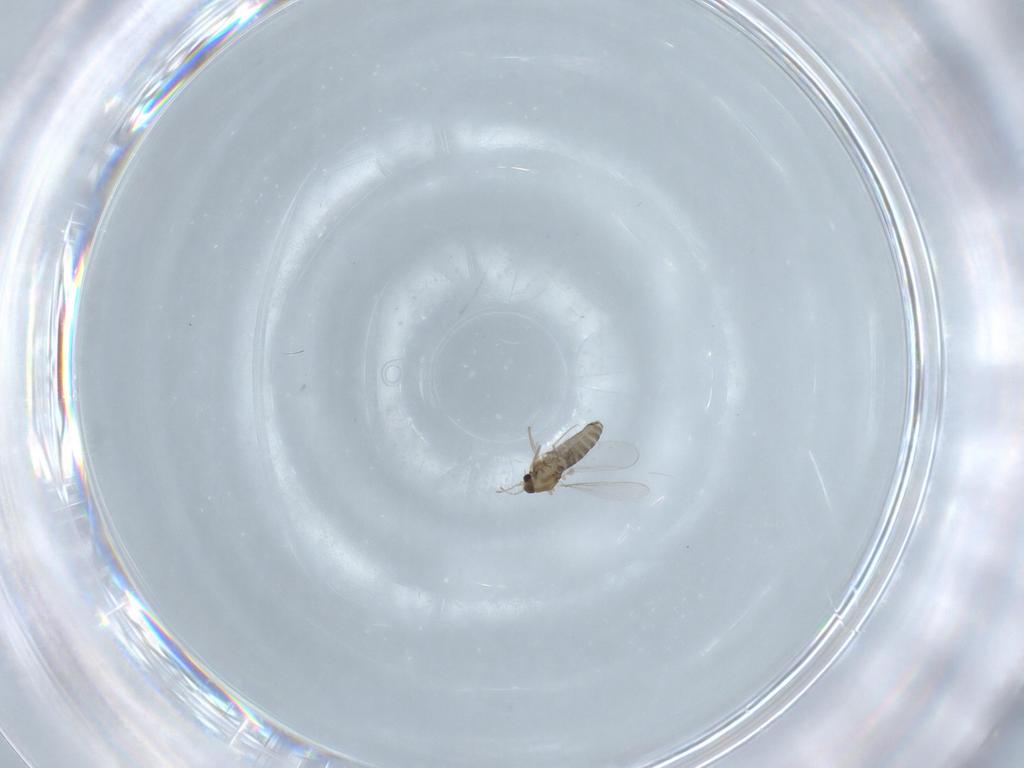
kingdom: Animalia
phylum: Arthropoda
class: Insecta
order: Diptera
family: Chironomidae
